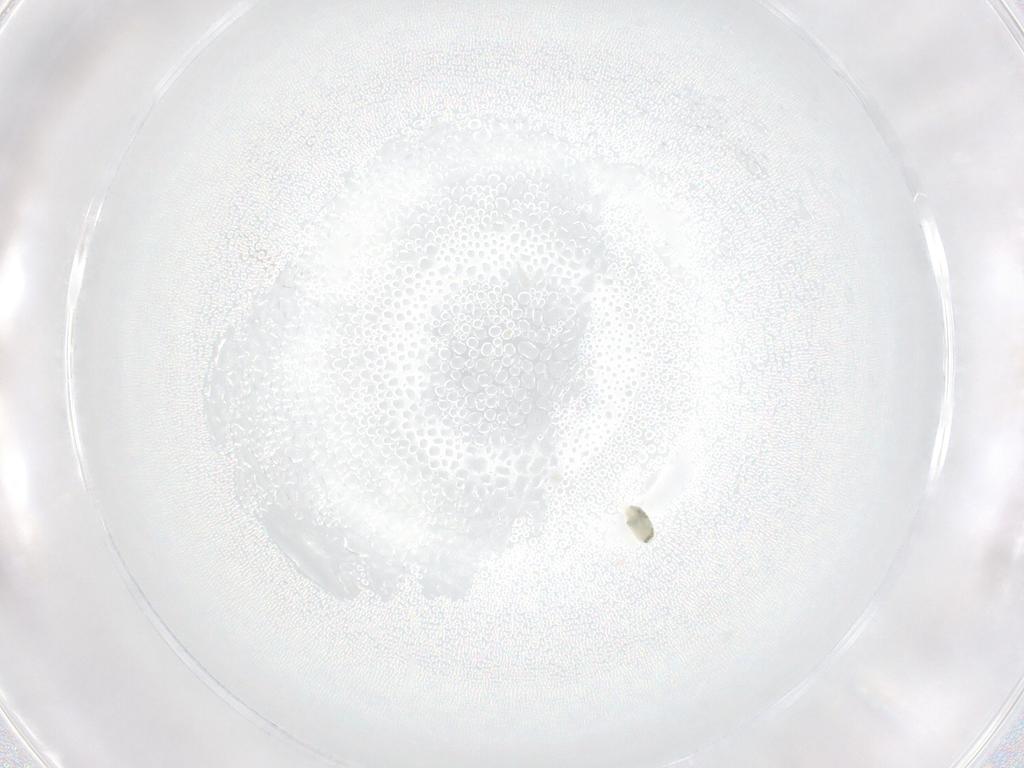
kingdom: Animalia
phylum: Arthropoda
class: Arachnida
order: Trombidiformes
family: Eupodidae
